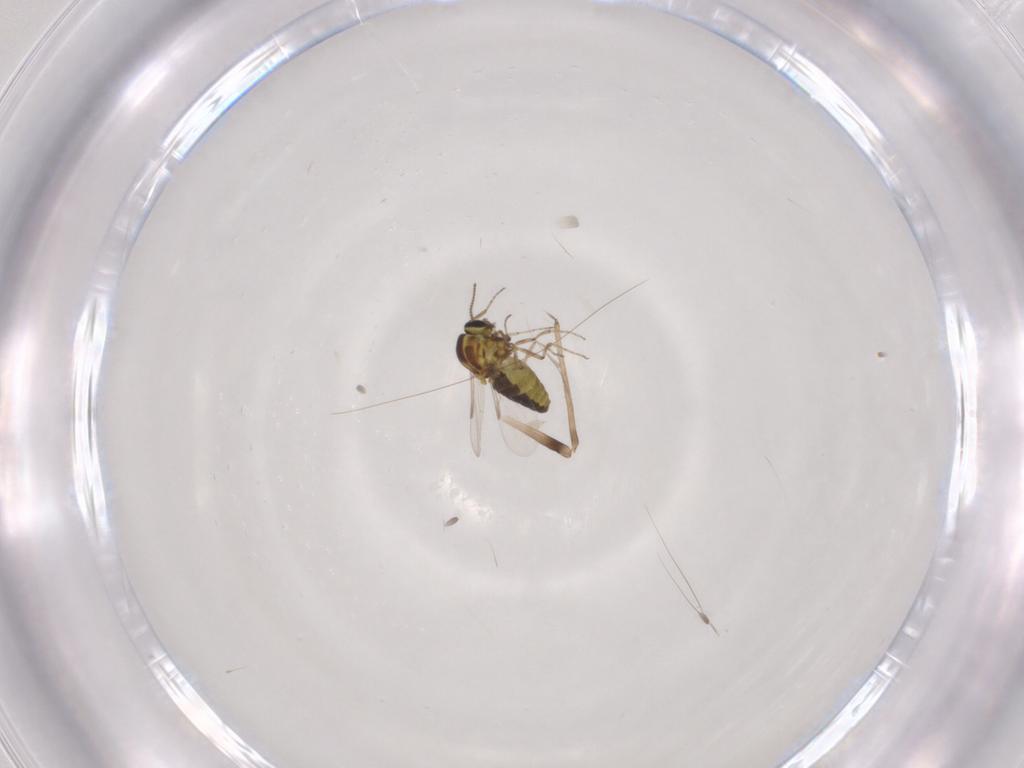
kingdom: Animalia
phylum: Arthropoda
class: Insecta
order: Diptera
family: Ceratopogonidae
